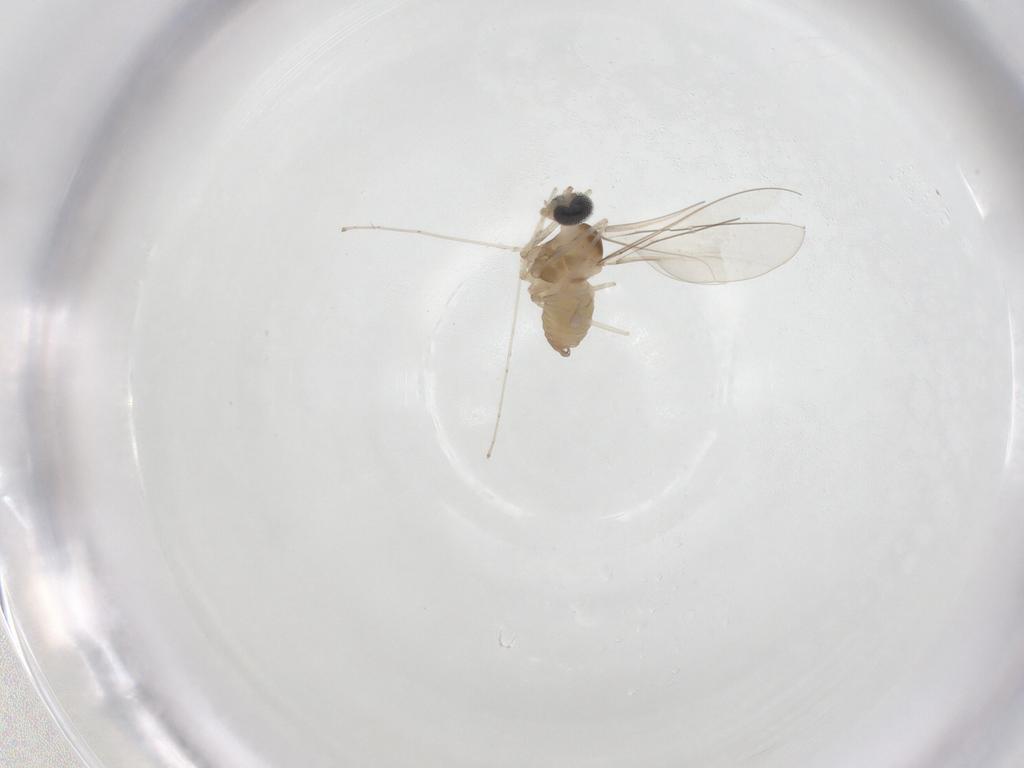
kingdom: Animalia
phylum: Arthropoda
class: Insecta
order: Diptera
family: Cecidomyiidae
